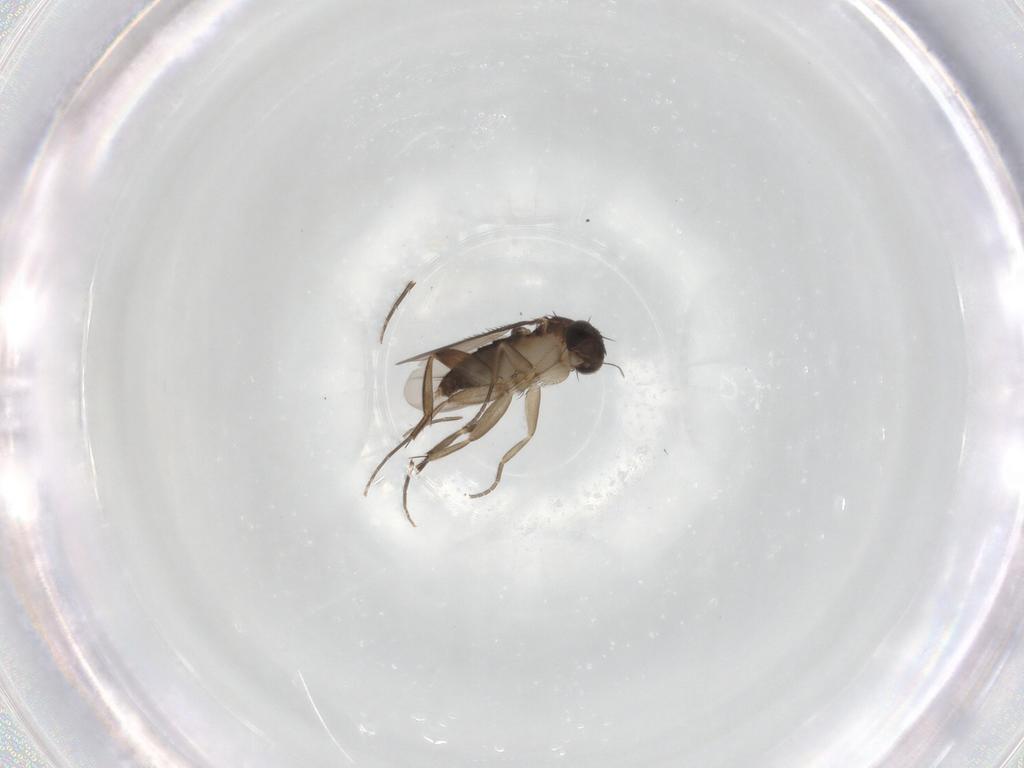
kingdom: Animalia
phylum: Arthropoda
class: Insecta
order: Diptera
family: Phoridae
